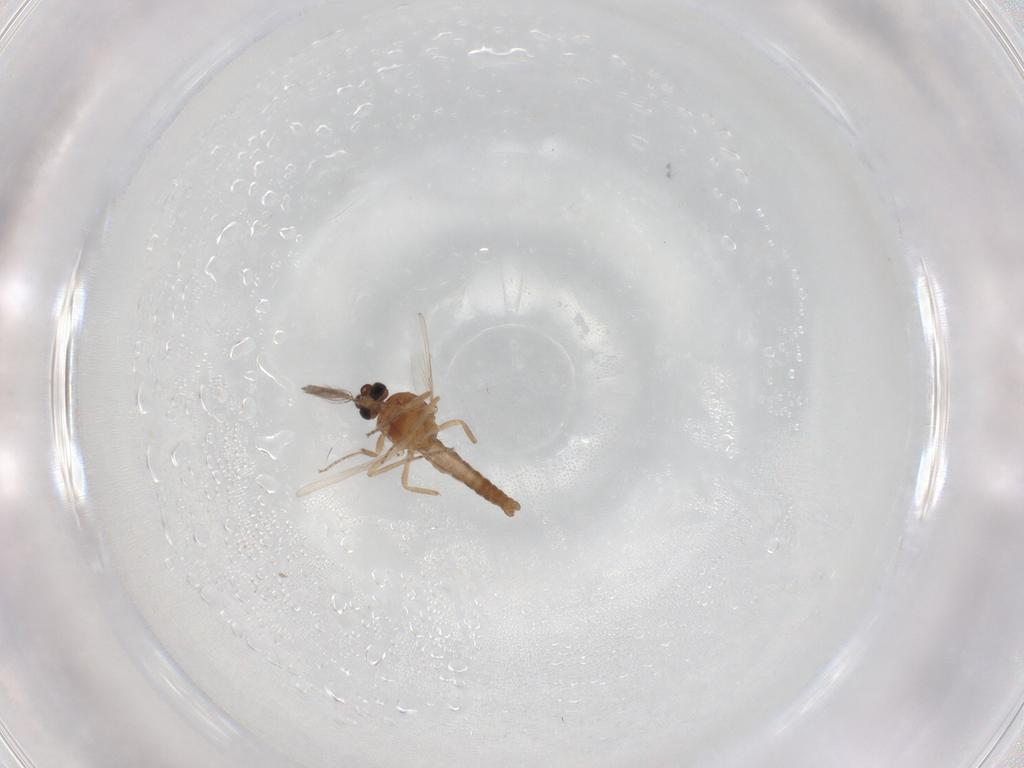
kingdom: Animalia
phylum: Arthropoda
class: Insecta
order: Diptera
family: Ceratopogonidae
